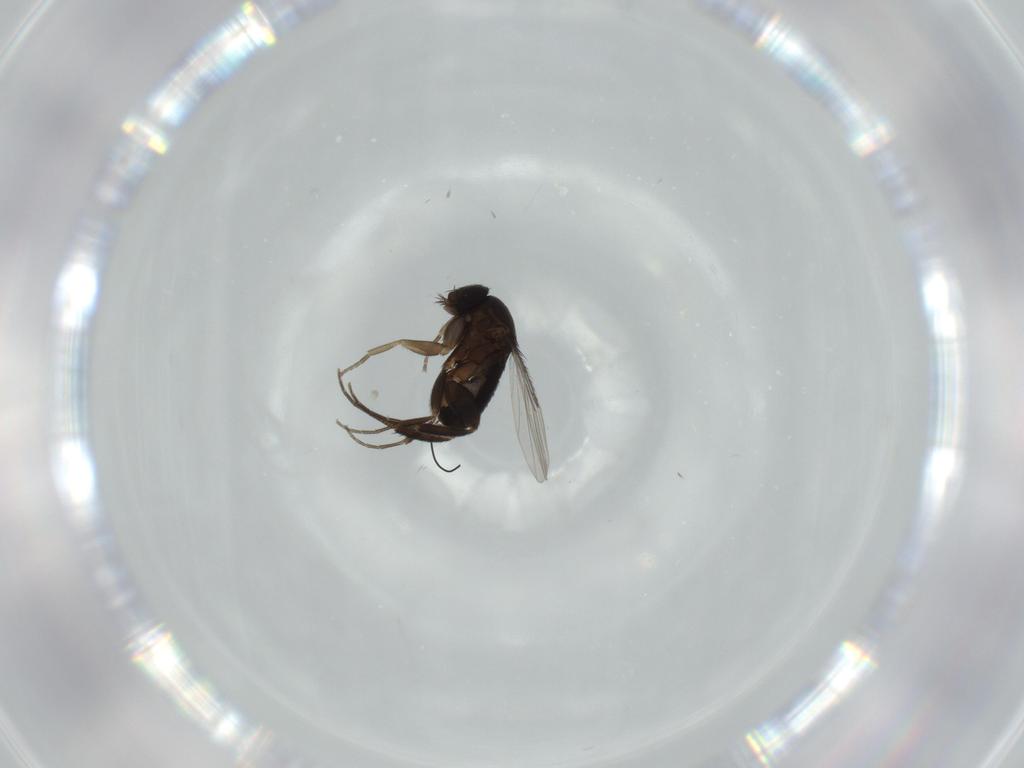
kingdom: Animalia
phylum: Arthropoda
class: Insecta
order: Diptera
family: Phoridae
